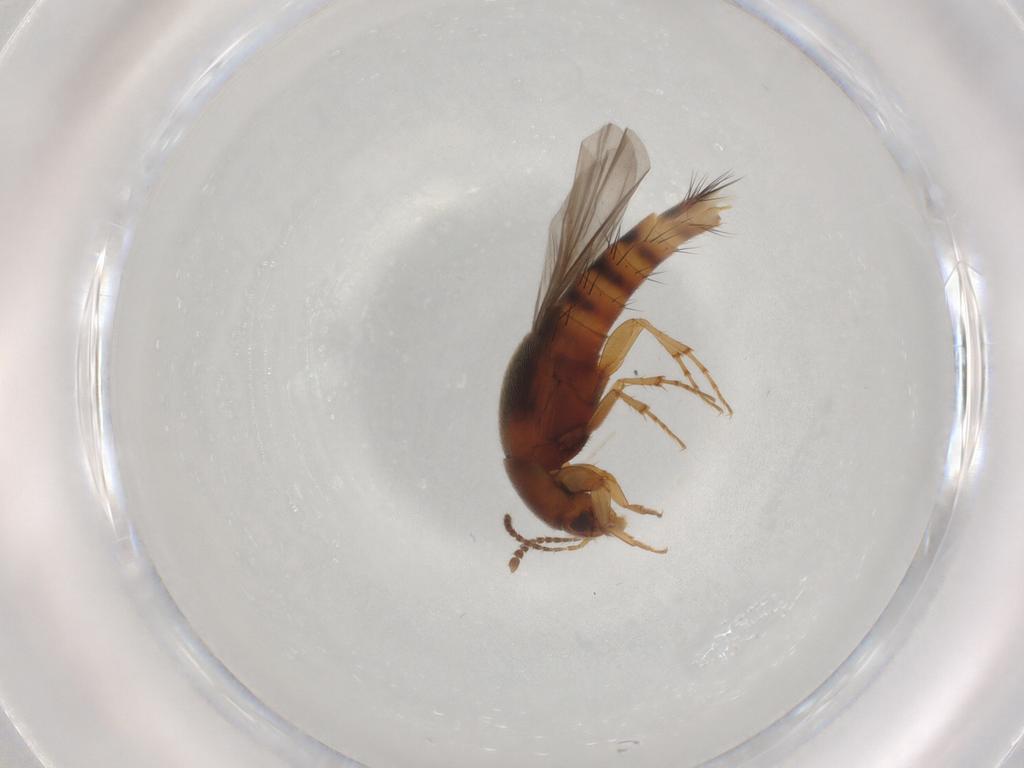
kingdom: Animalia
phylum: Arthropoda
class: Insecta
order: Coleoptera
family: Staphylinidae
